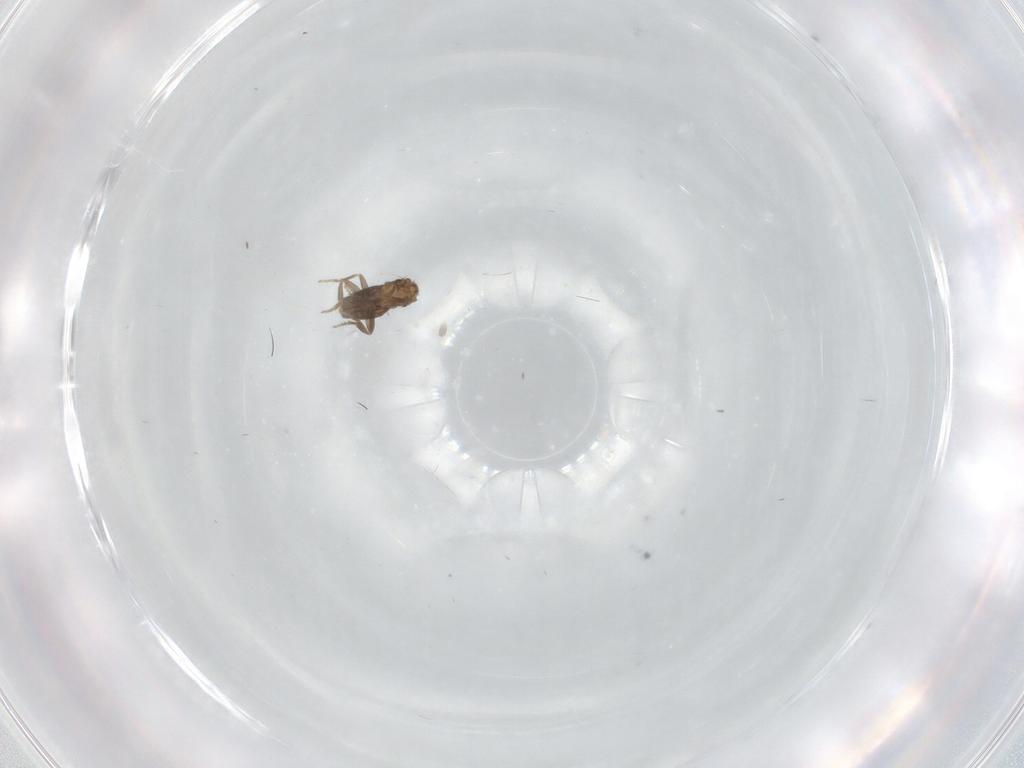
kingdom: Animalia
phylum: Arthropoda
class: Insecta
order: Diptera
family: Phoridae
